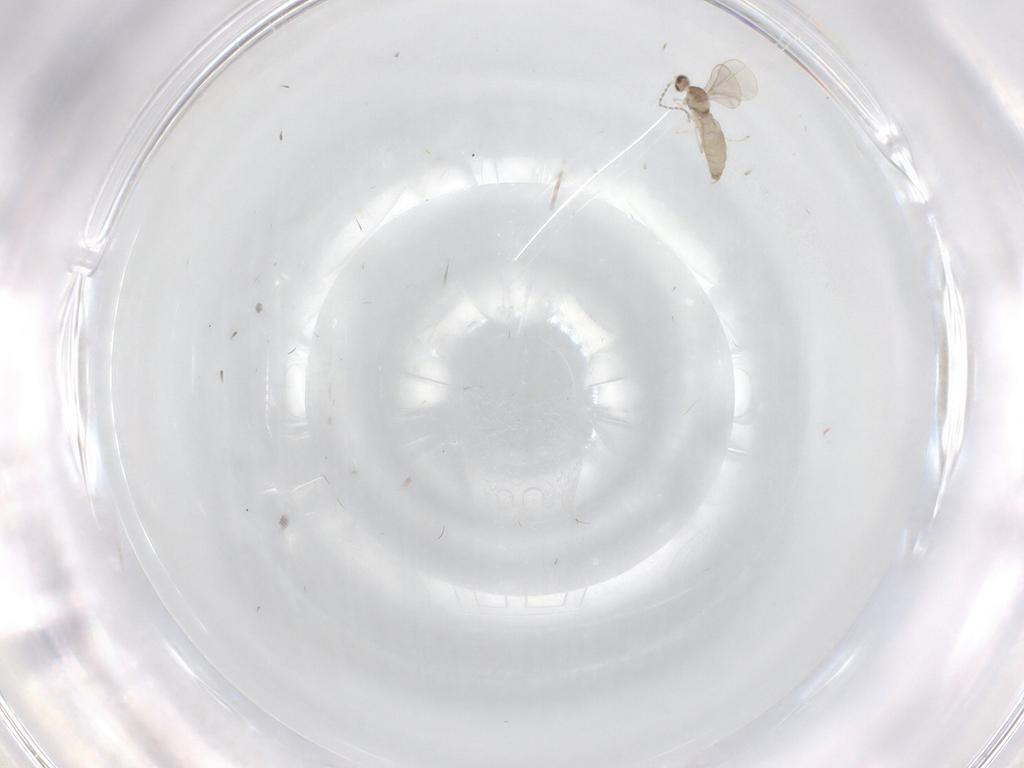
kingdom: Animalia
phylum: Arthropoda
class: Insecta
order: Diptera
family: Cecidomyiidae
